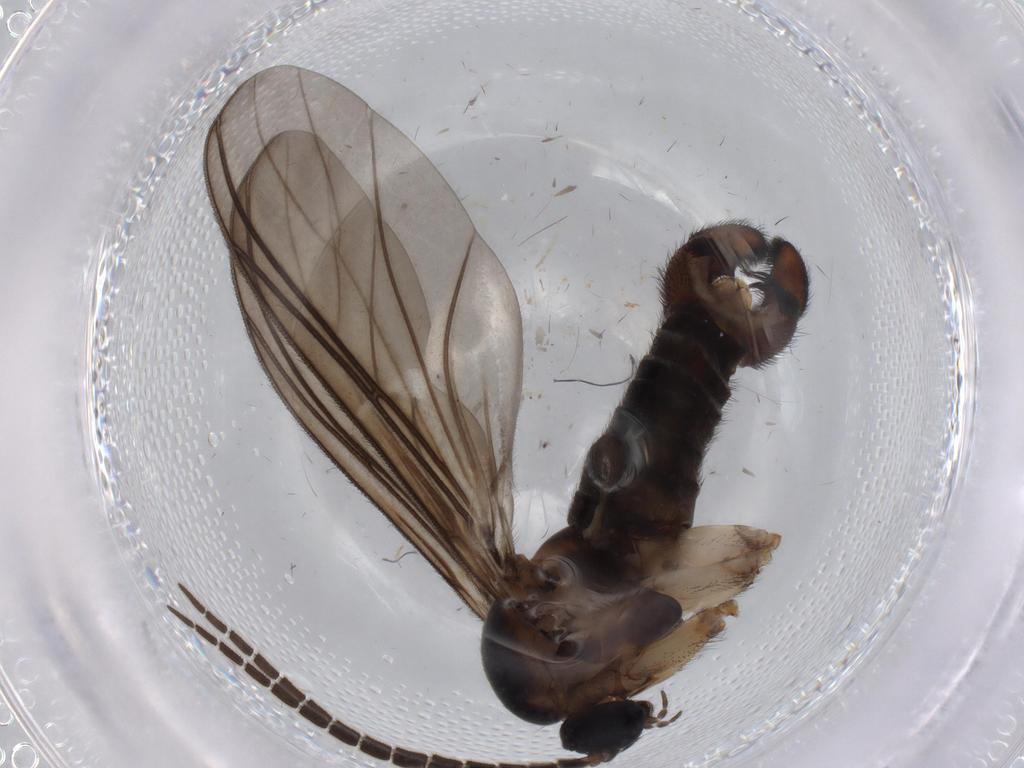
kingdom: Animalia
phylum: Arthropoda
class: Insecta
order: Diptera
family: Sciaridae
